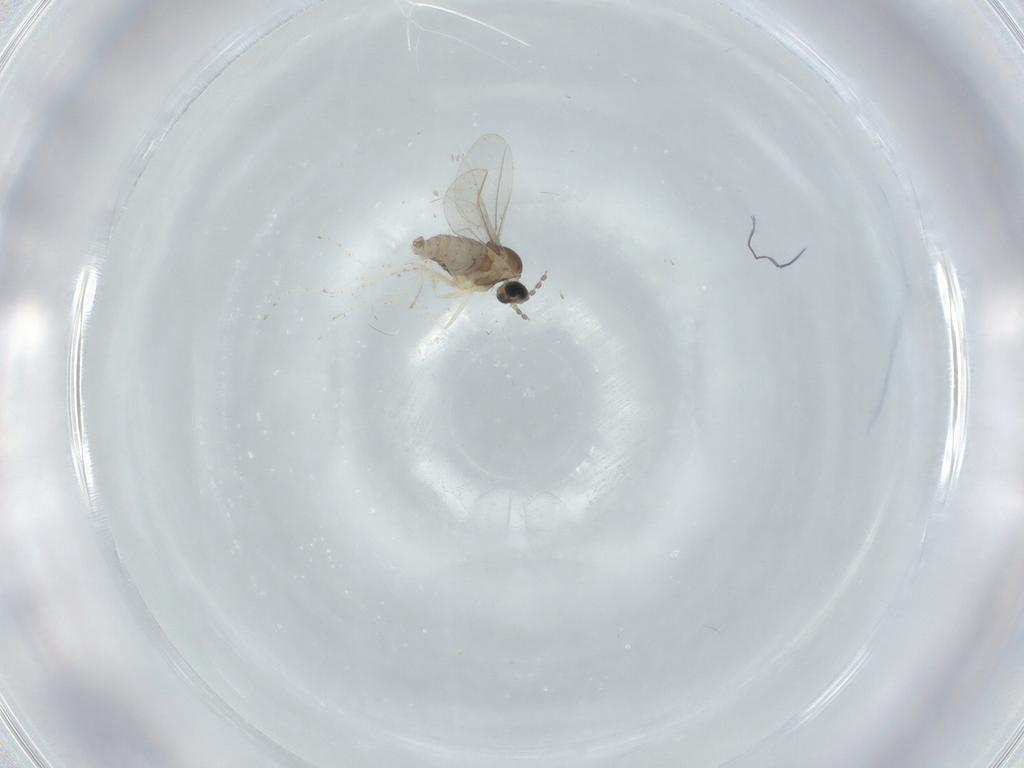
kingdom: Animalia
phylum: Arthropoda
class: Insecta
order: Diptera
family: Cecidomyiidae
